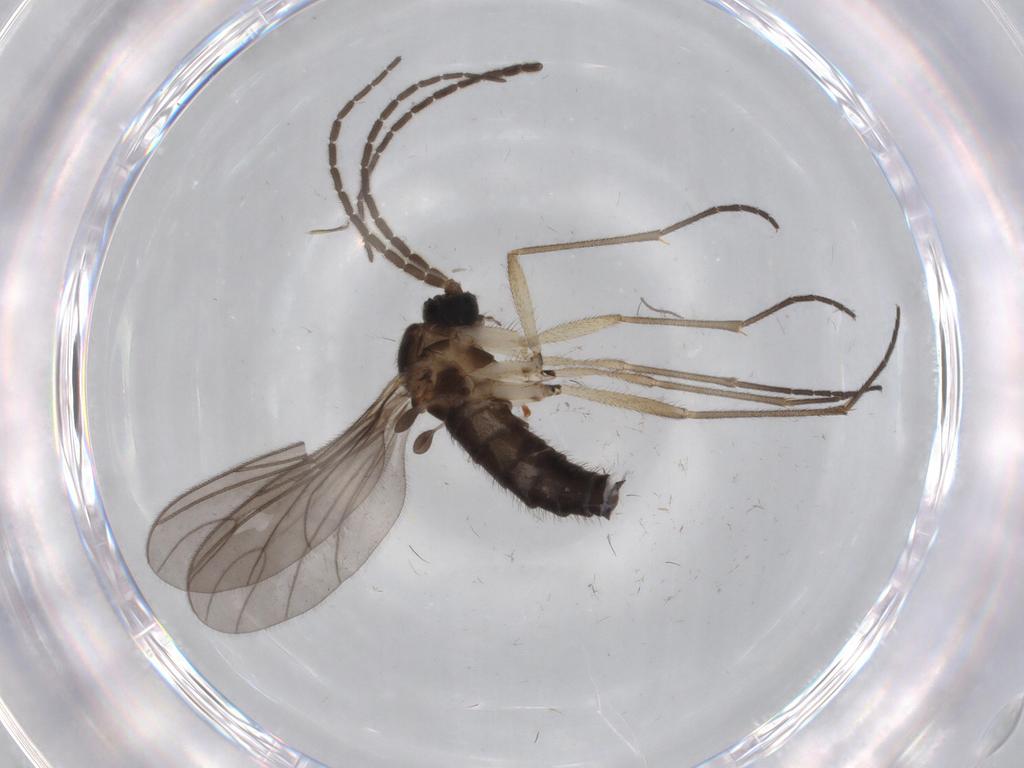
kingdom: Animalia
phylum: Arthropoda
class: Insecta
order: Diptera
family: Sciaridae
